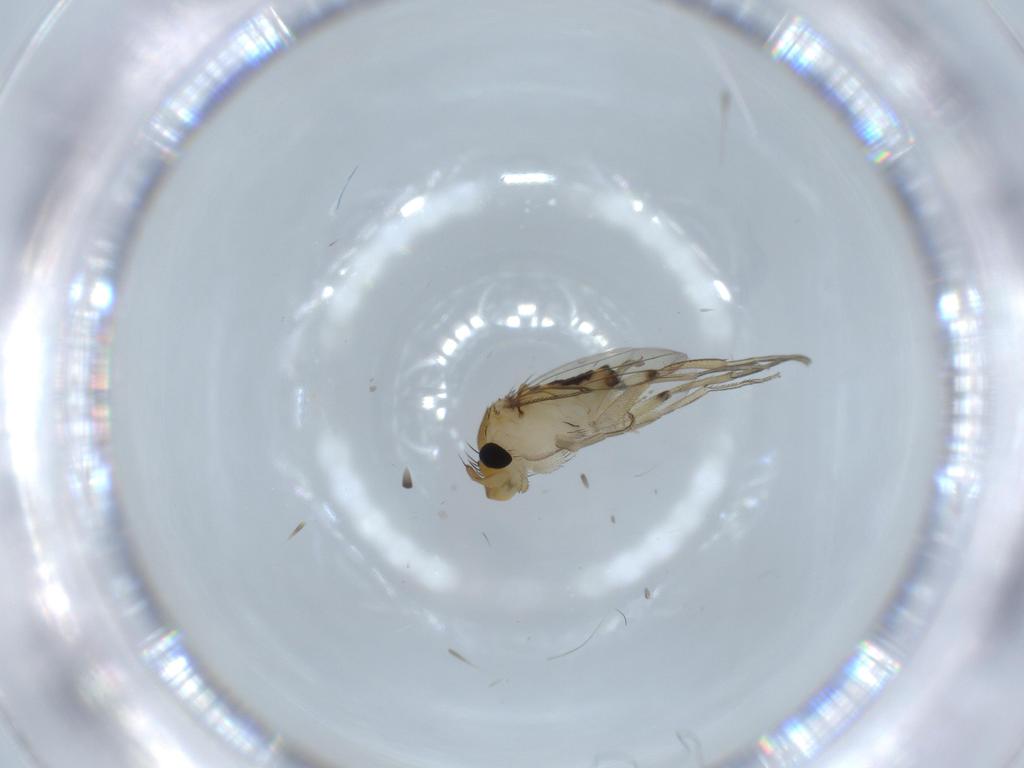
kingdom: Animalia
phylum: Arthropoda
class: Insecta
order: Diptera
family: Phoridae
